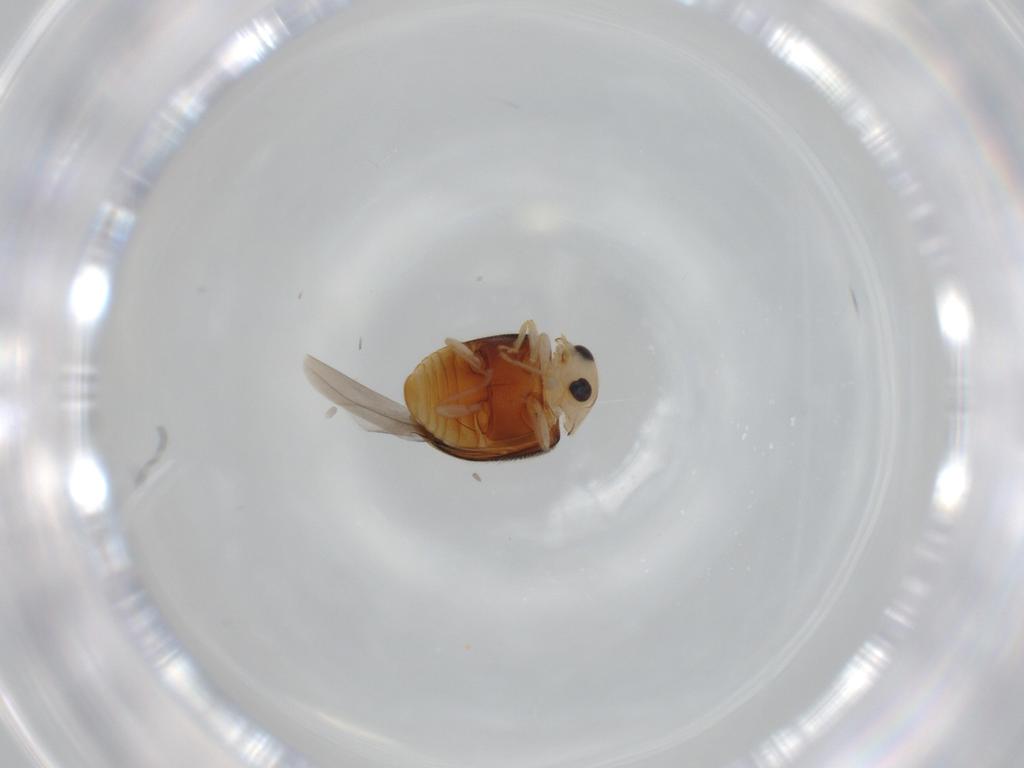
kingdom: Animalia
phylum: Arthropoda
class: Insecta
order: Coleoptera
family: Coccinellidae
